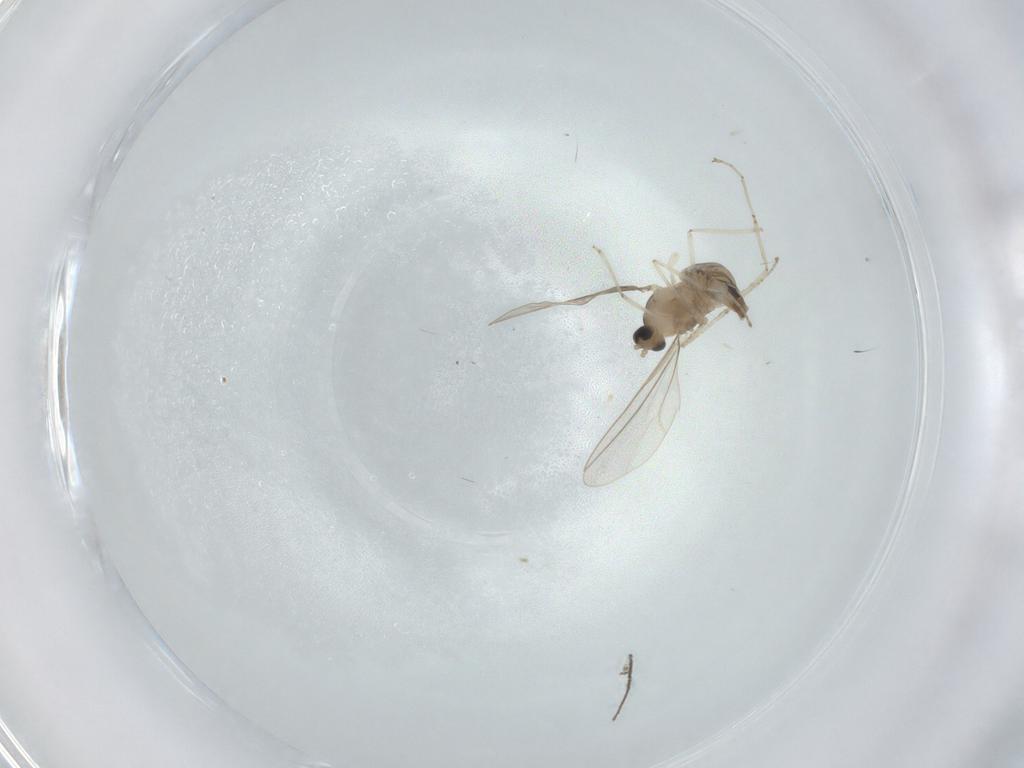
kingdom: Animalia
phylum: Arthropoda
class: Insecta
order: Diptera
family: Cecidomyiidae
